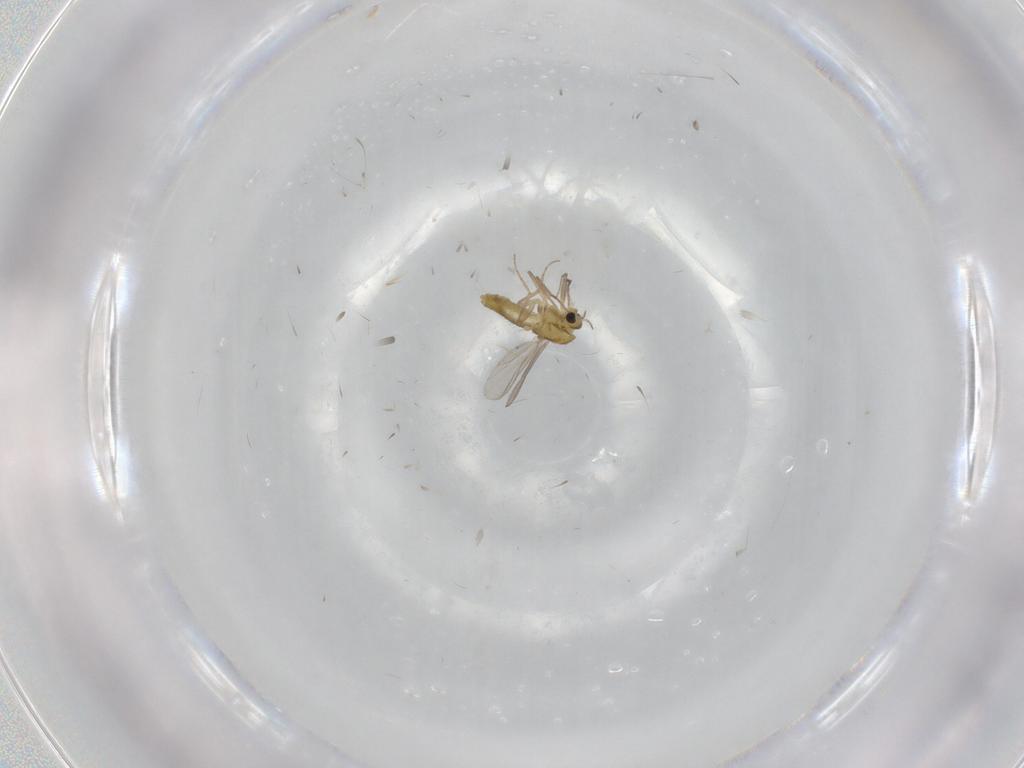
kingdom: Animalia
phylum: Arthropoda
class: Insecta
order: Diptera
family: Chironomidae
